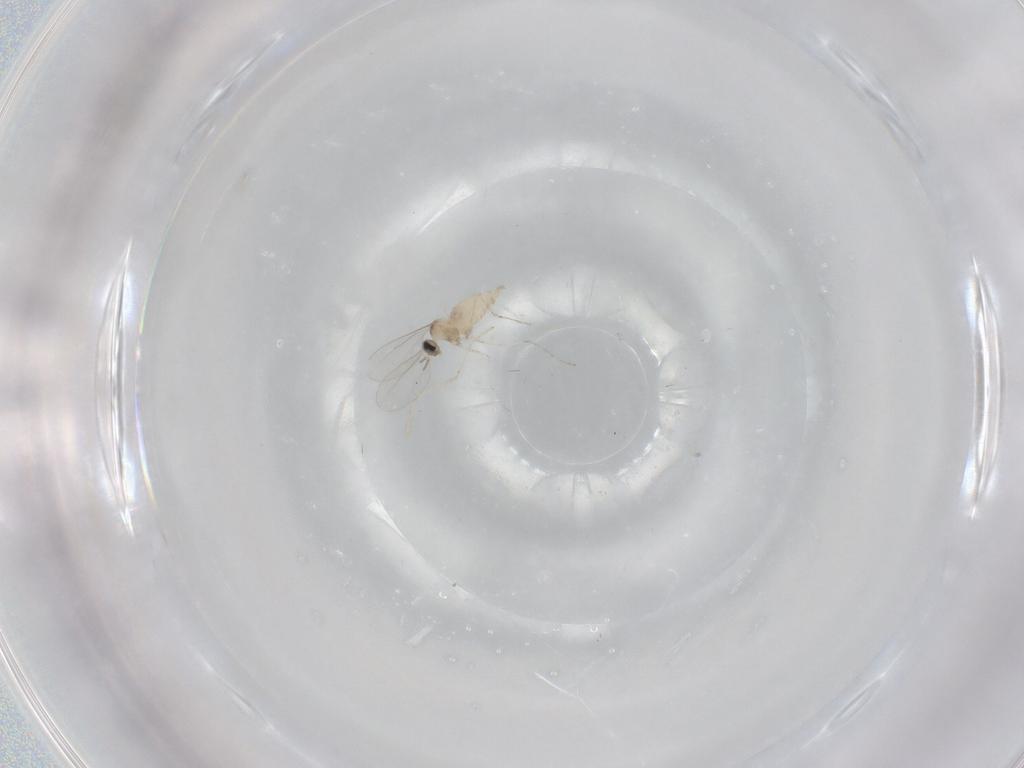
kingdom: Animalia
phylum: Arthropoda
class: Insecta
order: Diptera
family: Cecidomyiidae
